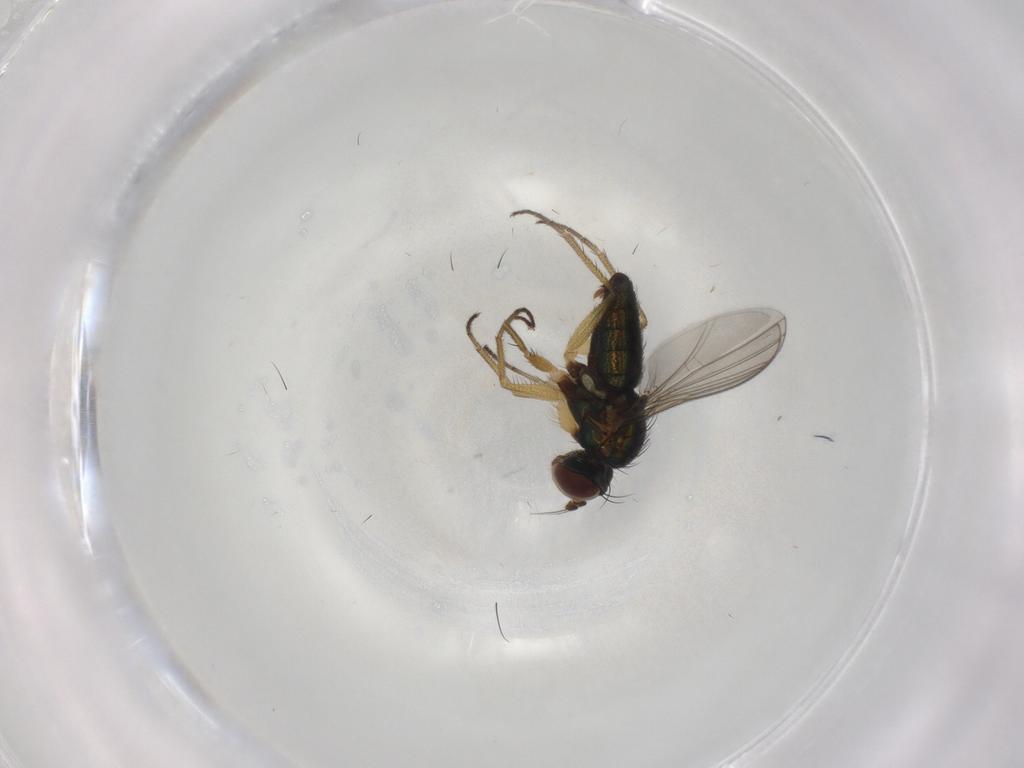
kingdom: Animalia
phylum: Arthropoda
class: Insecta
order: Diptera
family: Dolichopodidae
